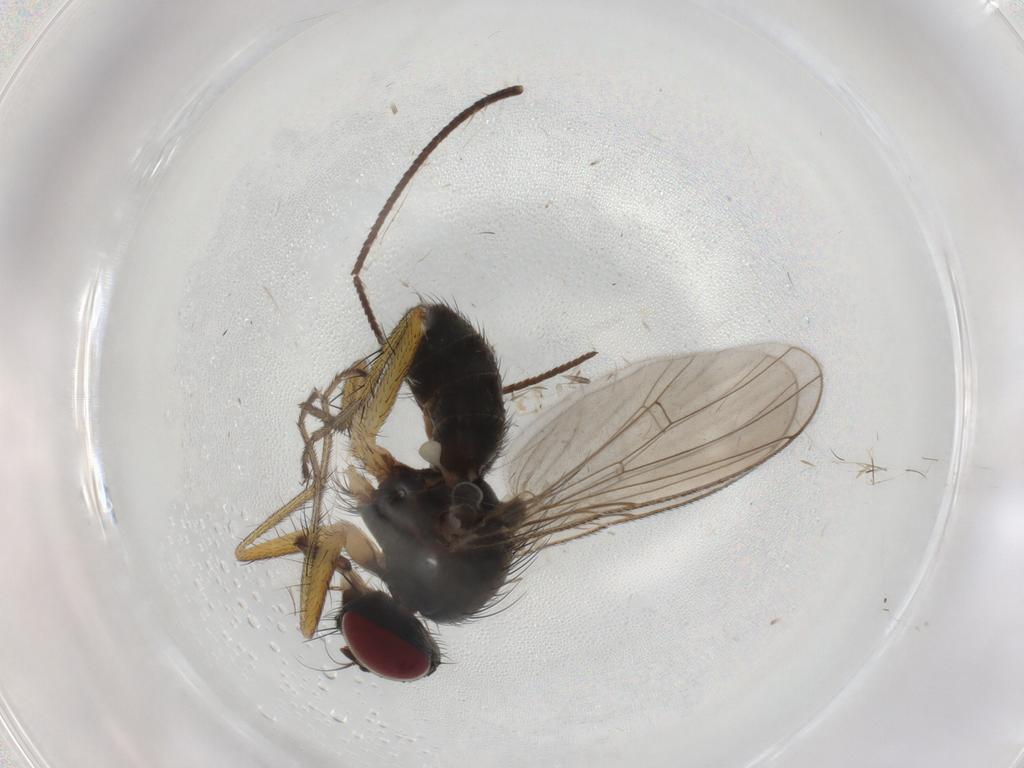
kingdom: Animalia
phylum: Arthropoda
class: Insecta
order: Diptera
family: Muscidae
